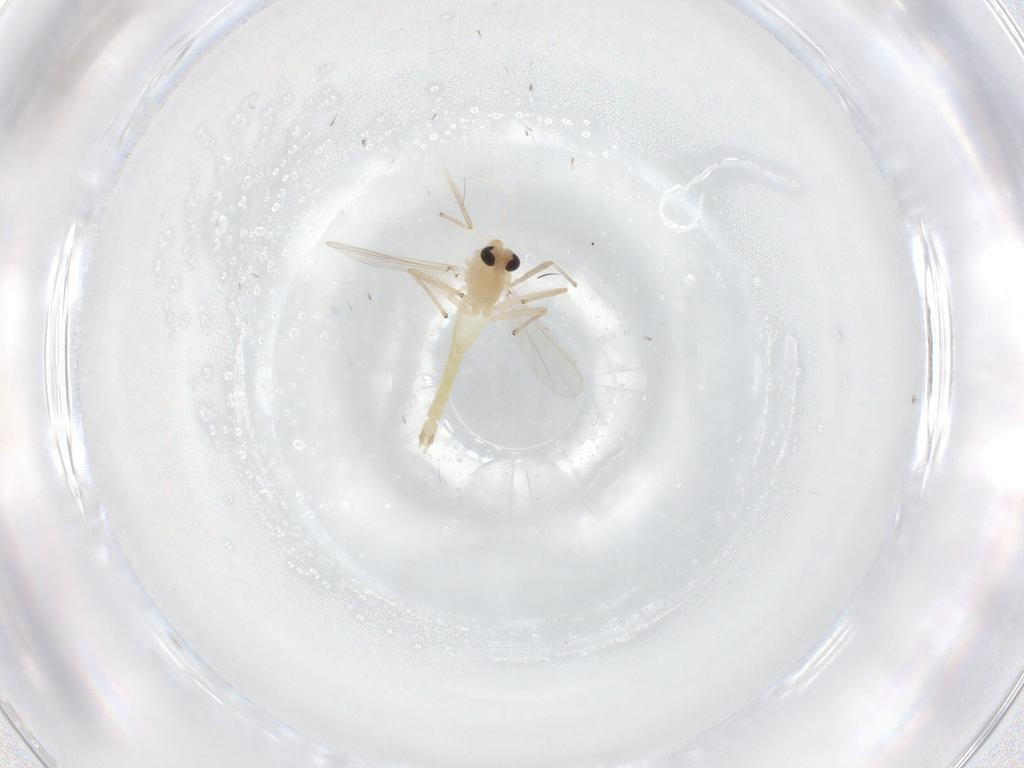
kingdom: Animalia
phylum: Arthropoda
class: Insecta
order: Diptera
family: Chironomidae
